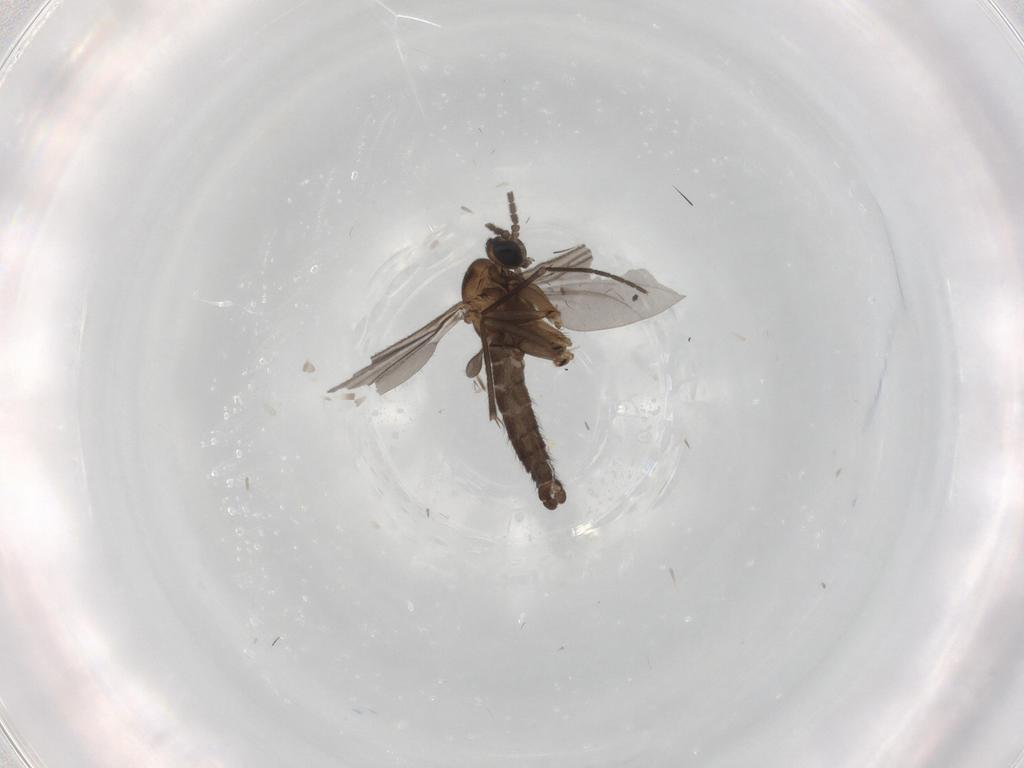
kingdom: Animalia
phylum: Arthropoda
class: Insecta
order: Diptera
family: Sciaridae
